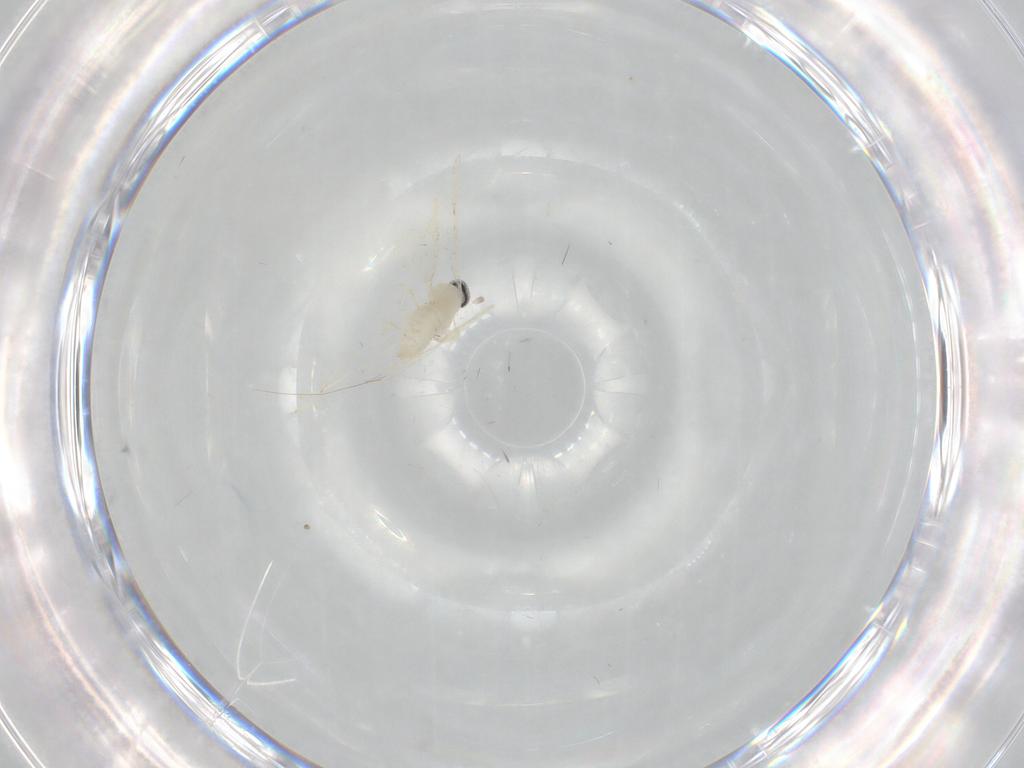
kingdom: Animalia
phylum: Arthropoda
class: Insecta
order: Diptera
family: Cecidomyiidae
